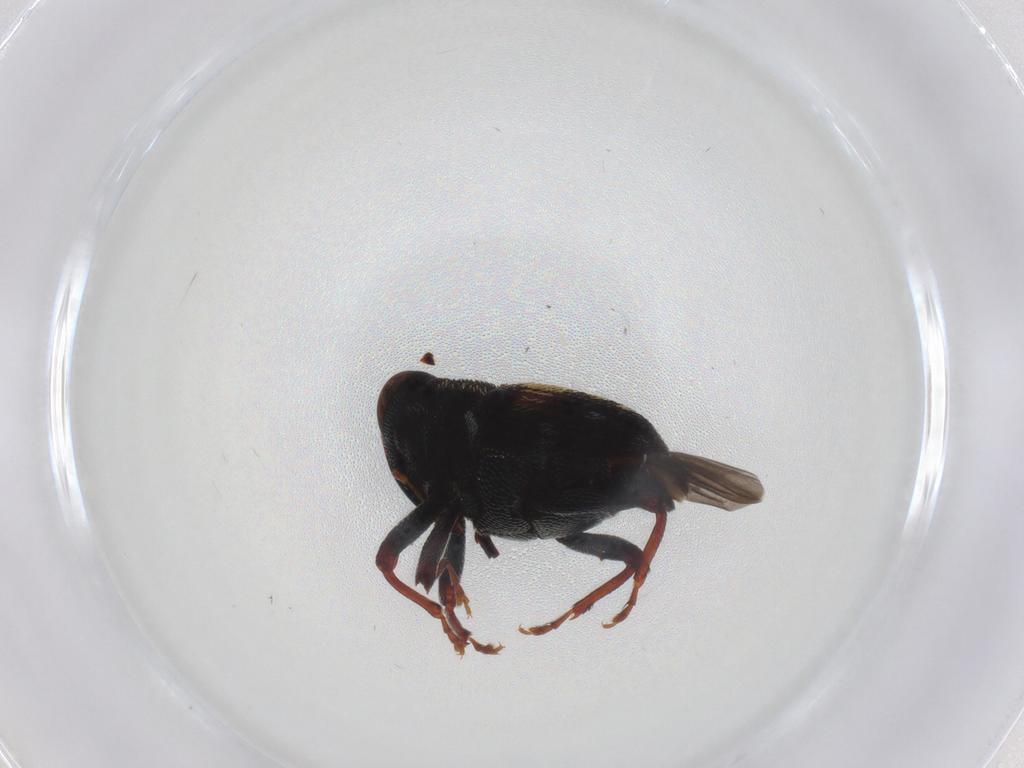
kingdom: Animalia
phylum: Arthropoda
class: Insecta
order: Coleoptera
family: Curculionidae
